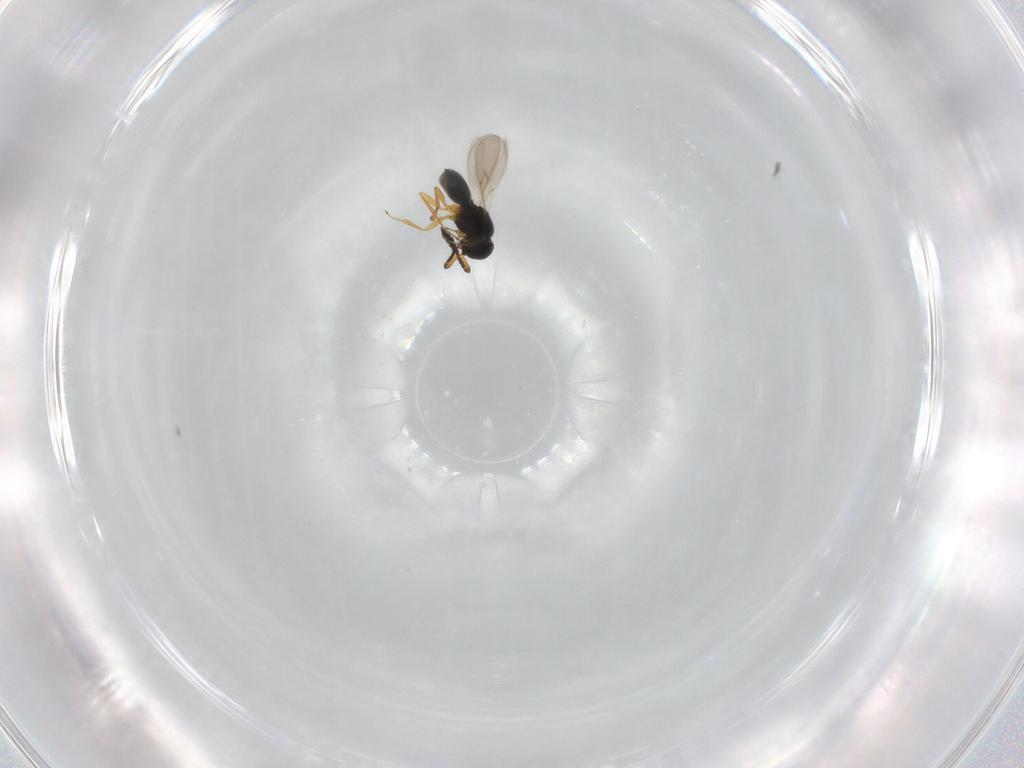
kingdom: Animalia
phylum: Arthropoda
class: Insecta
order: Hymenoptera
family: Scelionidae
